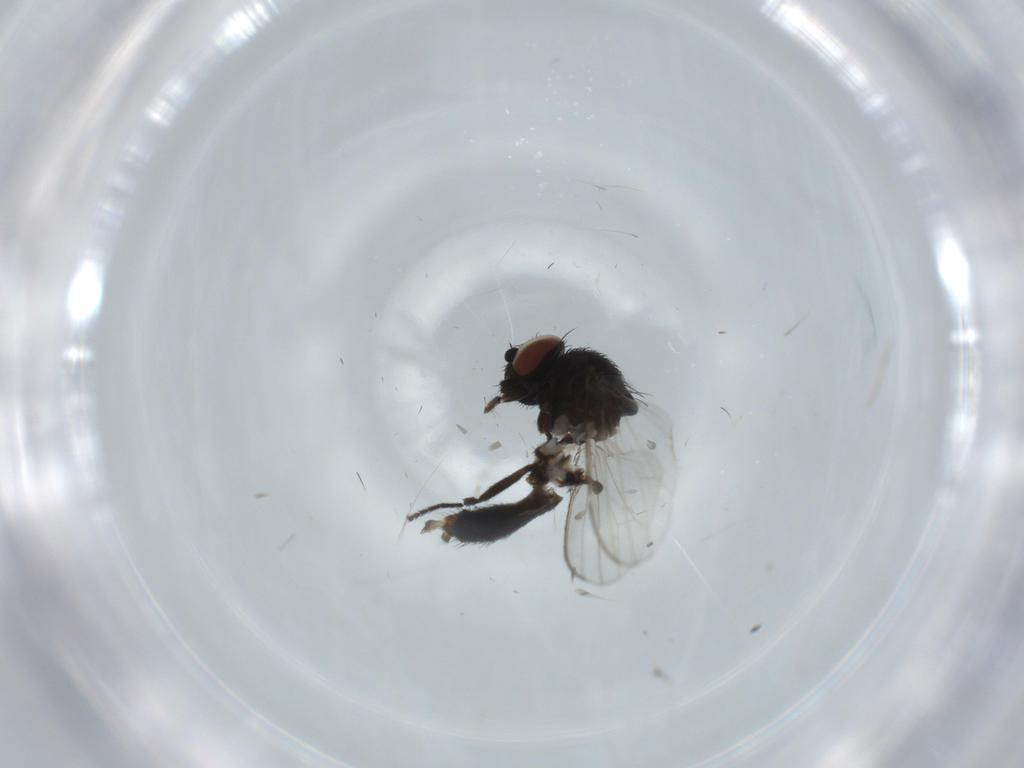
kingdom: Animalia
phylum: Arthropoda
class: Insecta
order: Diptera
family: Milichiidae
